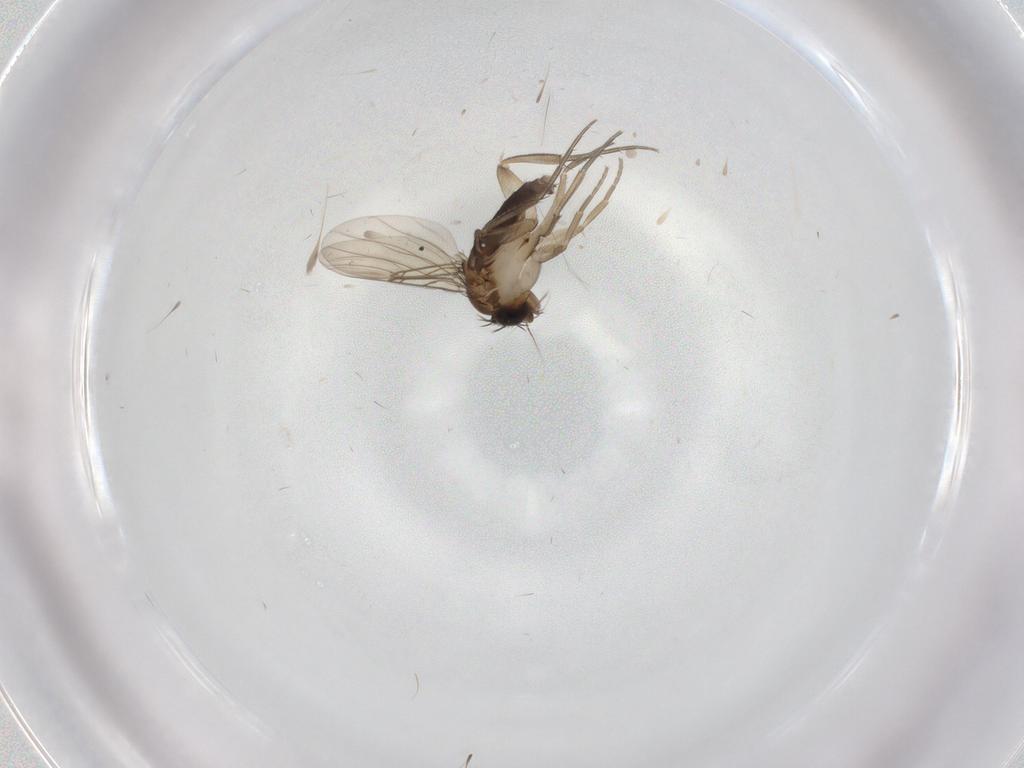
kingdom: Animalia
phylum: Arthropoda
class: Insecta
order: Diptera
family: Phoridae
